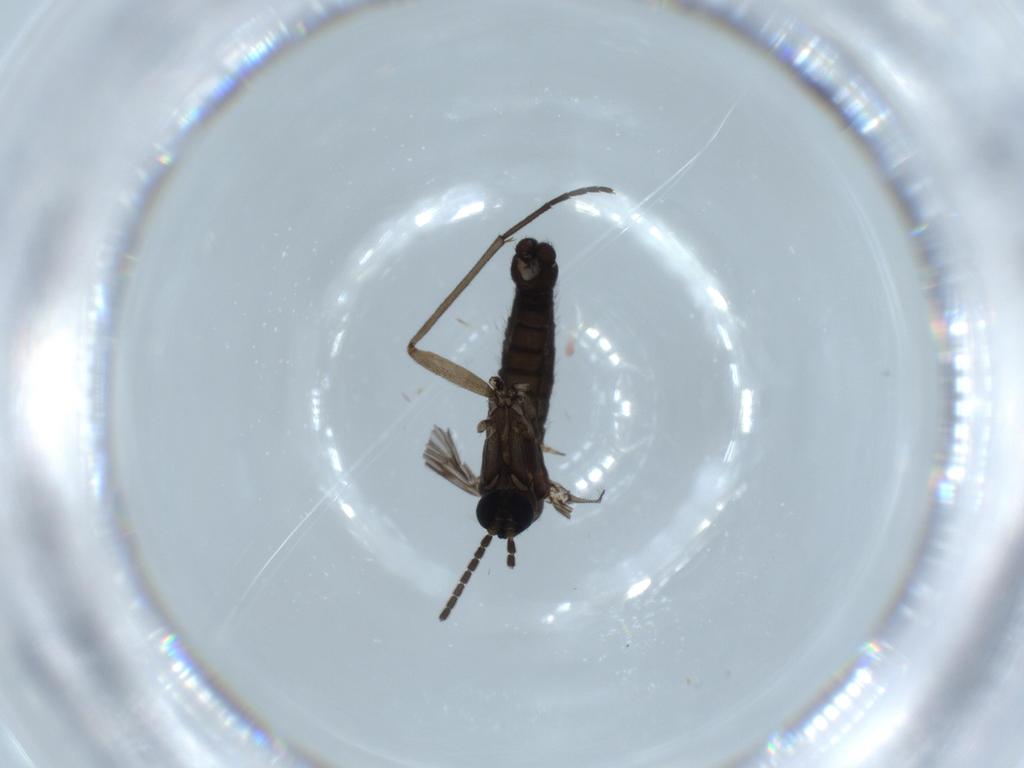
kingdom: Animalia
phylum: Arthropoda
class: Insecta
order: Diptera
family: Sciaridae
